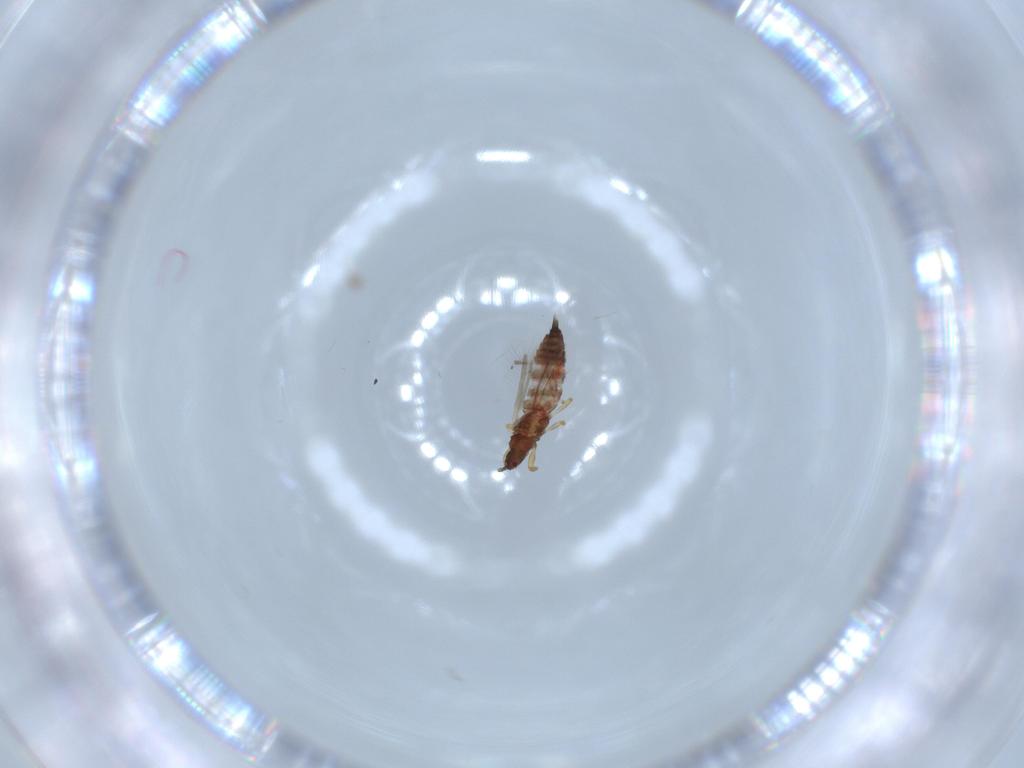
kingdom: Animalia
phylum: Arthropoda
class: Insecta
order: Thysanoptera
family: Phlaeothripidae
